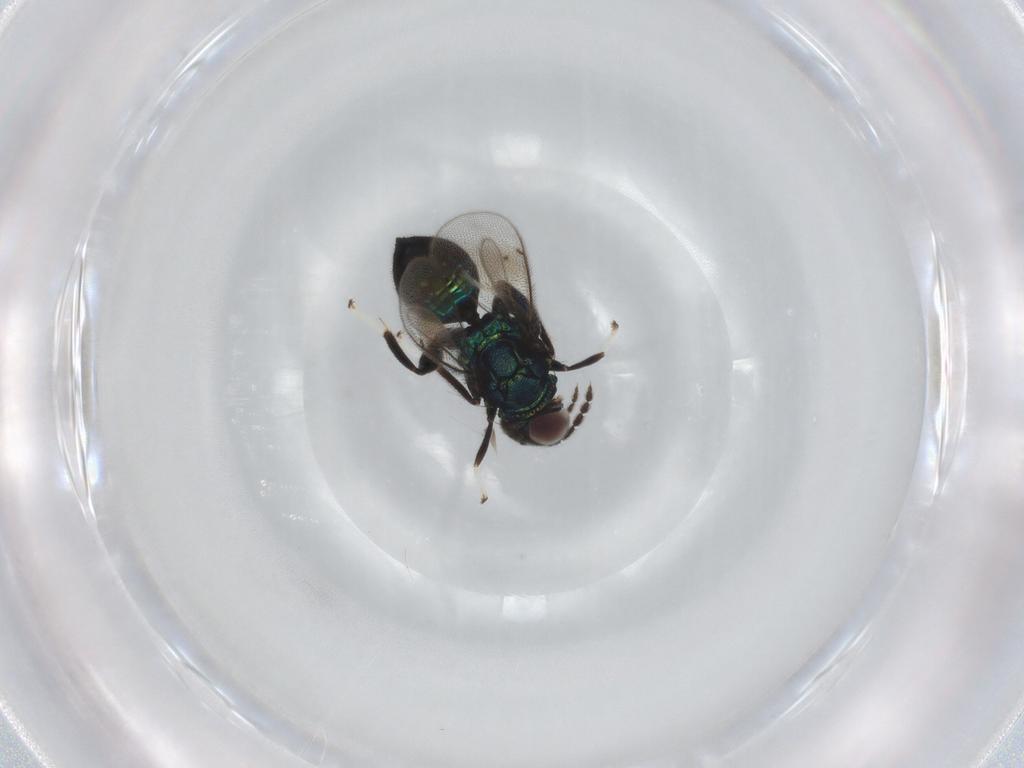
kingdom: Animalia
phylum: Arthropoda
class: Insecta
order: Hymenoptera
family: Eulophidae
